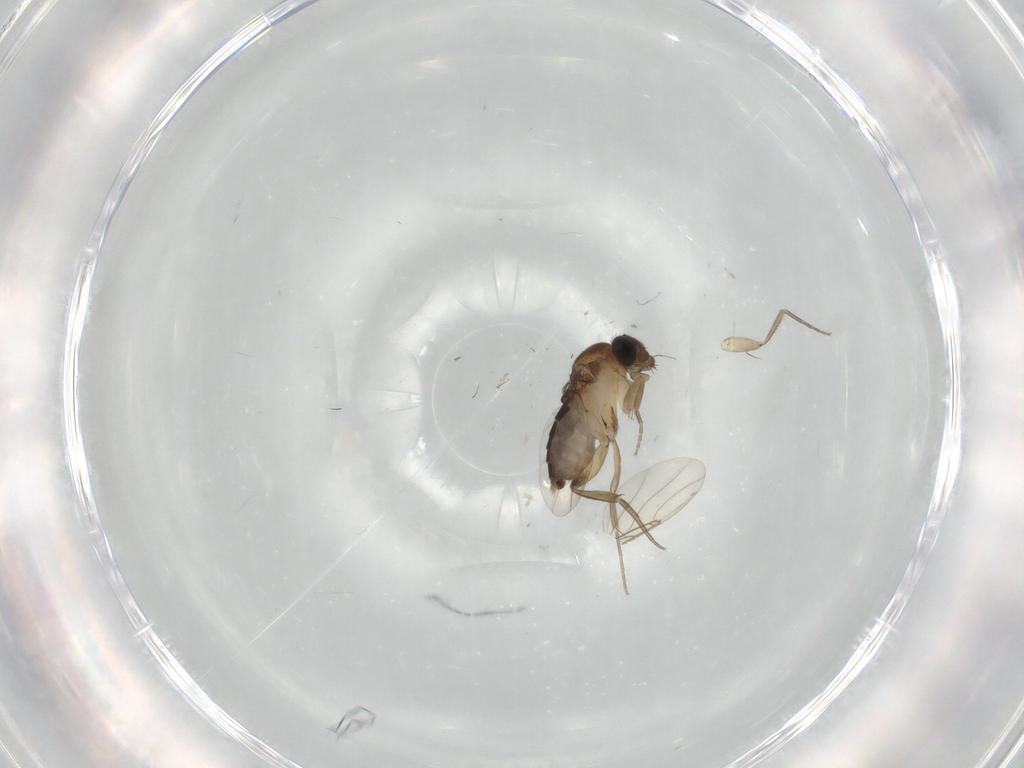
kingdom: Animalia
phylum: Arthropoda
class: Insecta
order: Diptera
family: Phoridae
